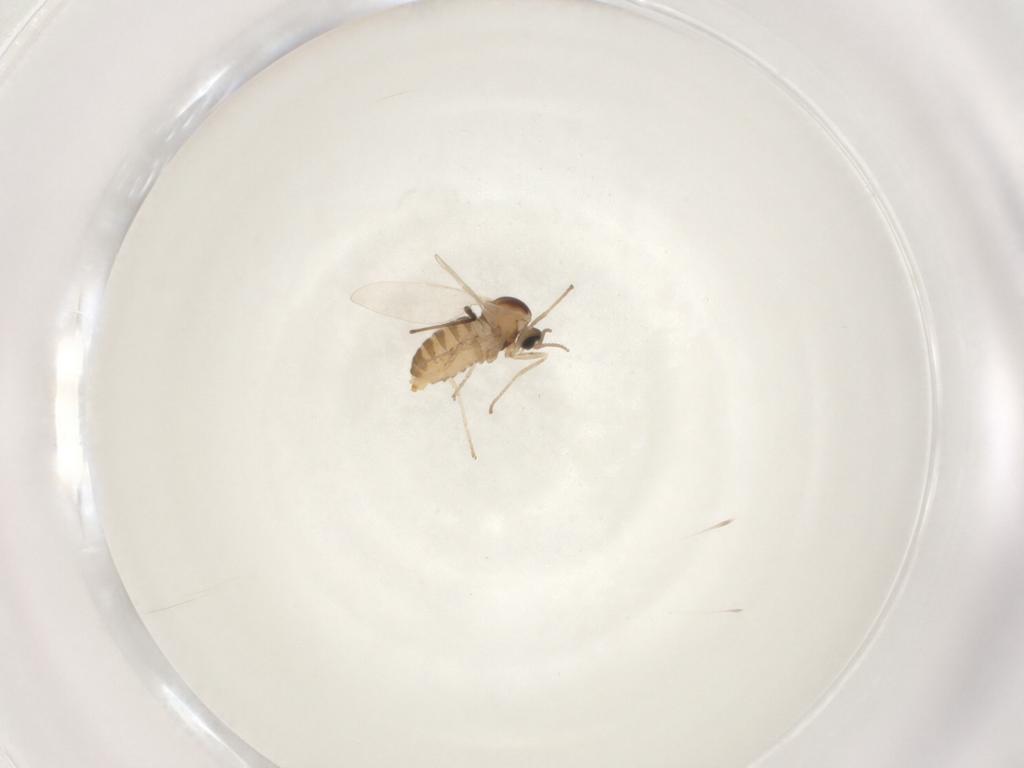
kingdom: Animalia
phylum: Arthropoda
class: Insecta
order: Diptera
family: Cecidomyiidae
